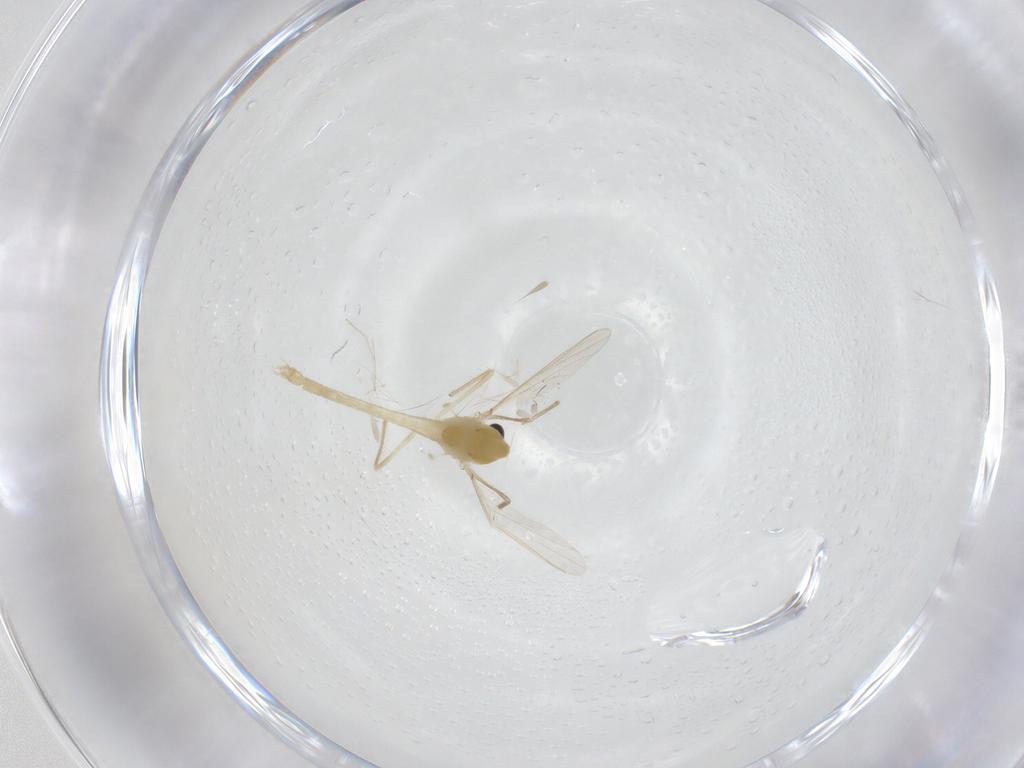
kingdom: Animalia
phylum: Arthropoda
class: Insecta
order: Diptera
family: Chironomidae
